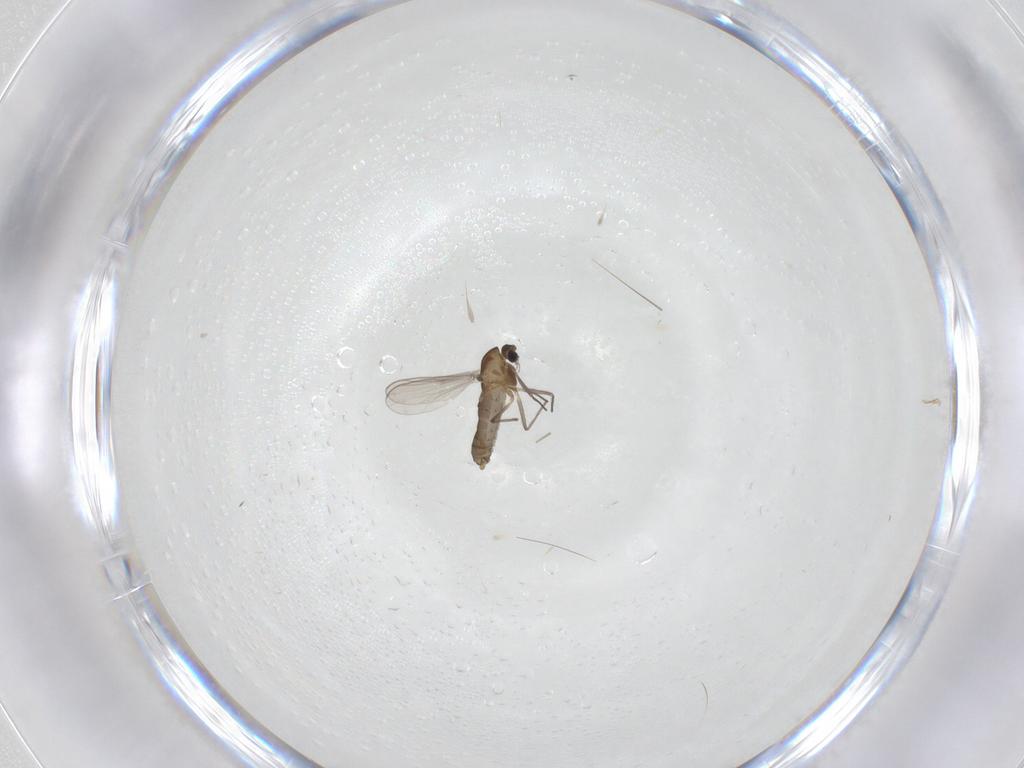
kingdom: Animalia
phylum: Arthropoda
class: Insecta
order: Diptera
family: Chironomidae
